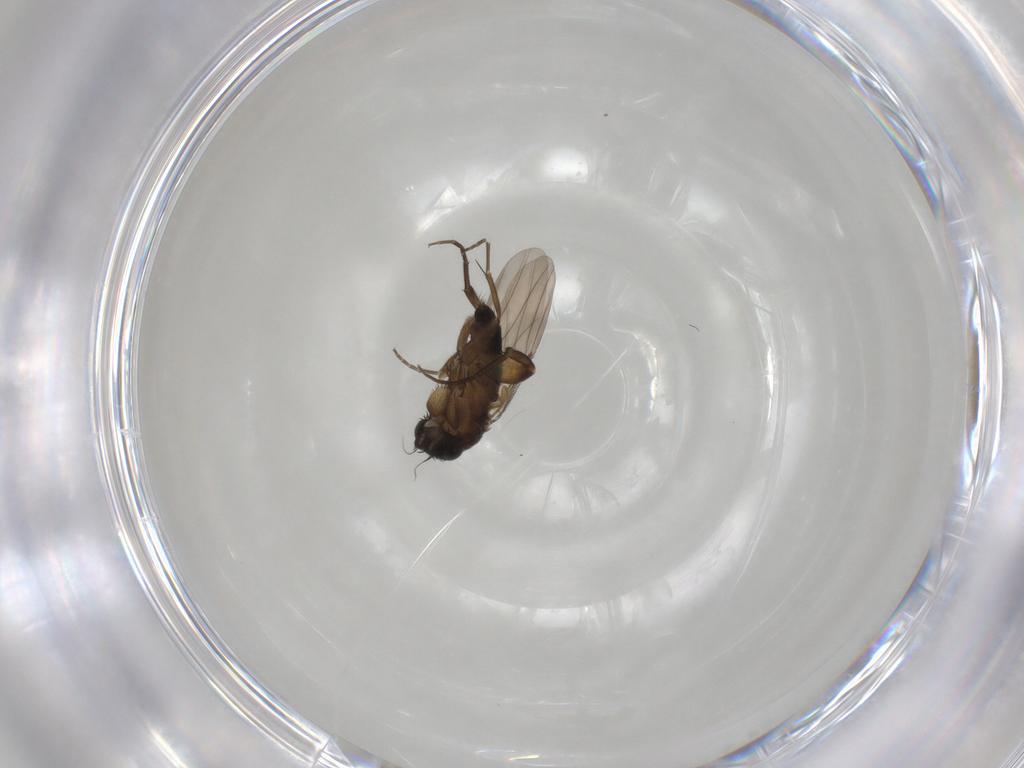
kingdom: Animalia
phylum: Arthropoda
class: Insecta
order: Diptera
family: Phoridae
